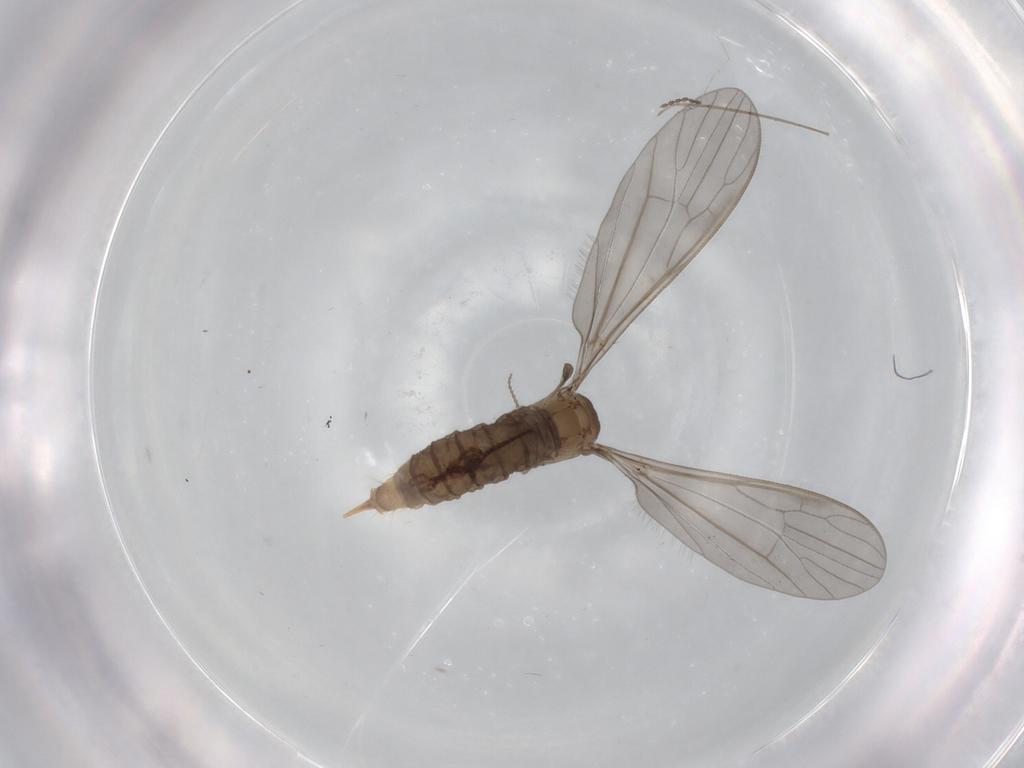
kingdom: Animalia
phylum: Arthropoda
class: Insecta
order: Diptera
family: Limoniidae
